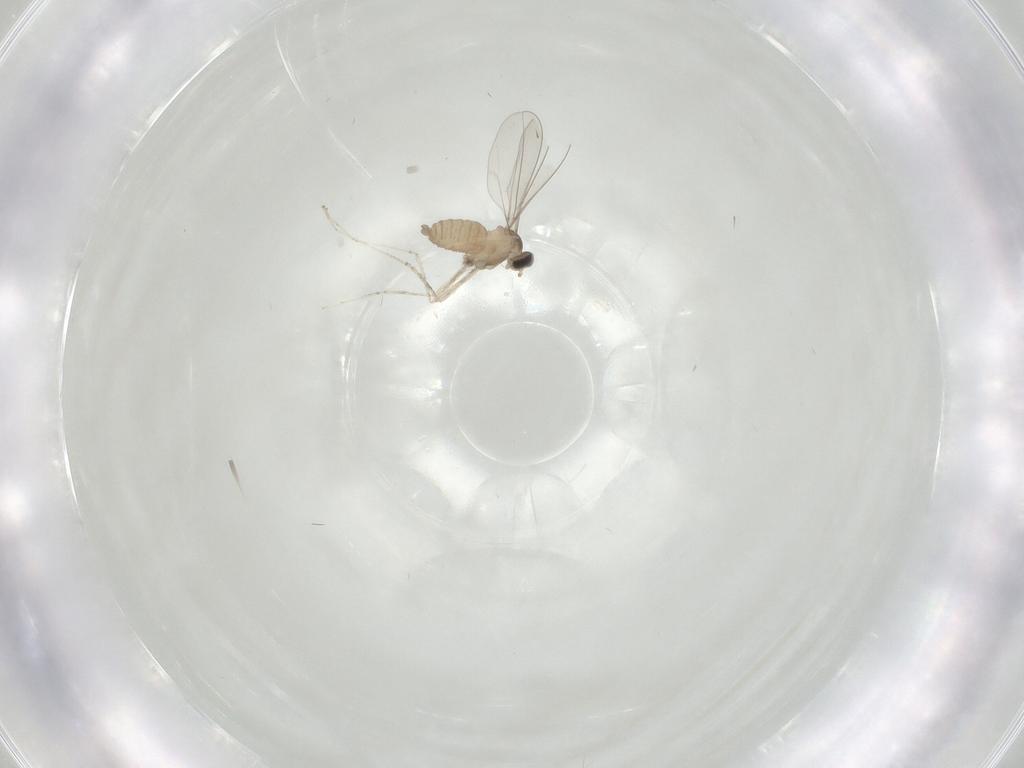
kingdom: Animalia
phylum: Arthropoda
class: Insecta
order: Diptera
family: Cecidomyiidae
